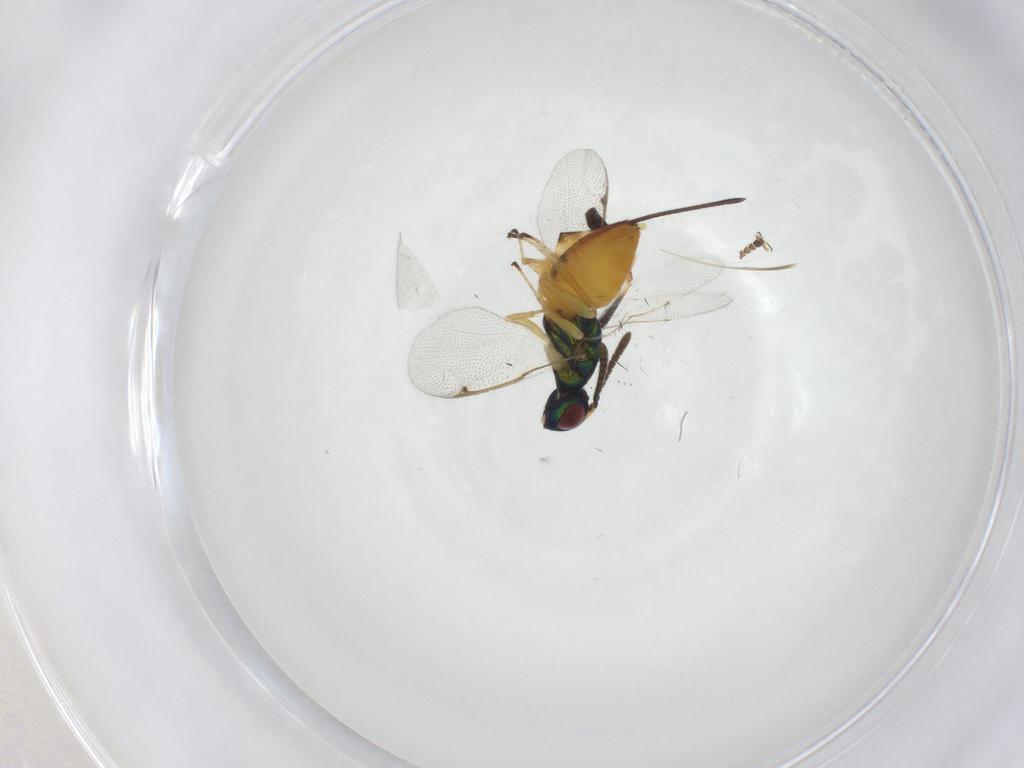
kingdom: Animalia
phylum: Arthropoda
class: Insecta
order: Hymenoptera
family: Torymidae
